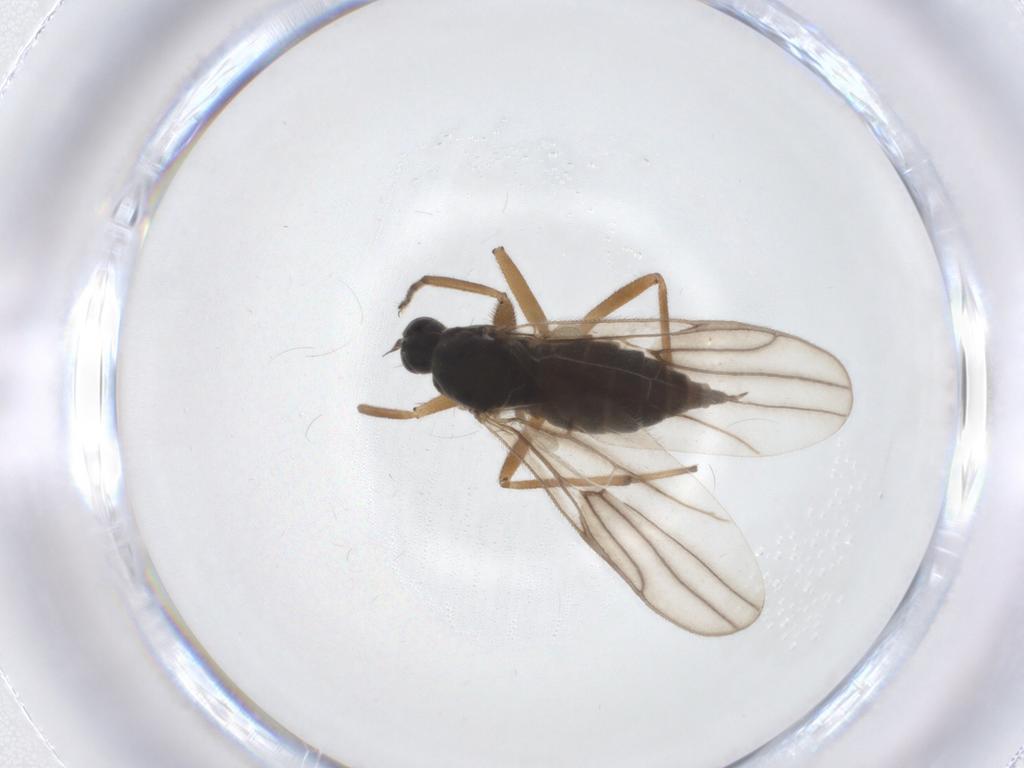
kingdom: Animalia
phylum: Arthropoda
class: Insecta
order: Diptera
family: Hybotidae
